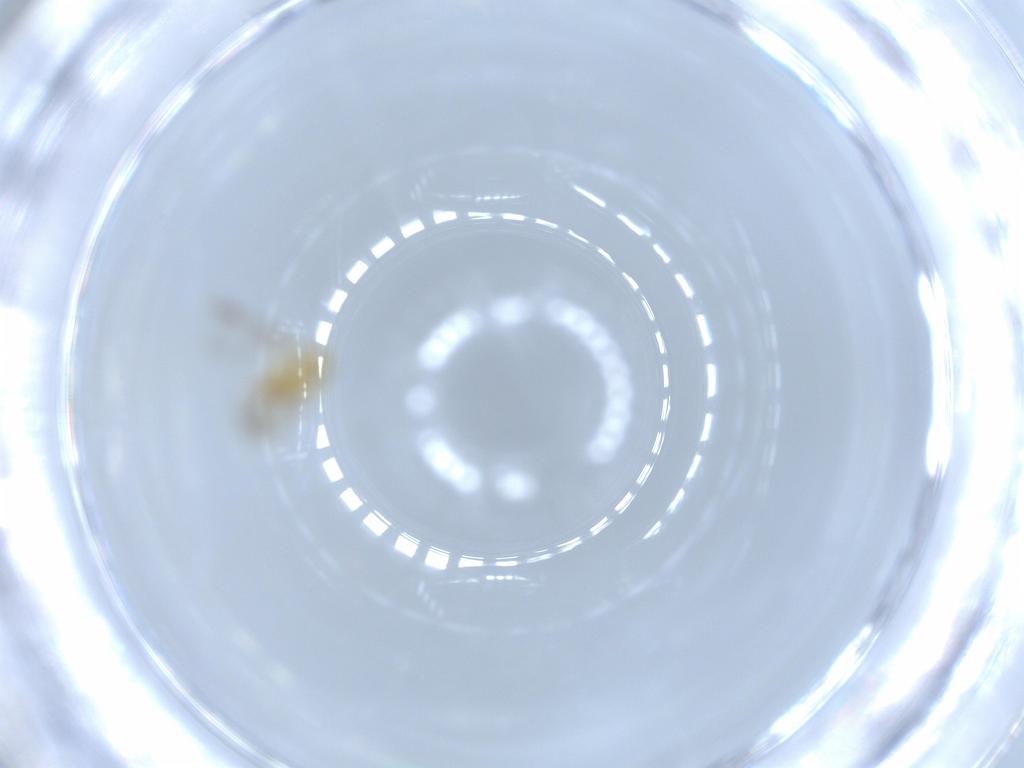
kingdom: Animalia
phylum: Arthropoda
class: Insecta
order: Hemiptera
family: Aleyrodidae
